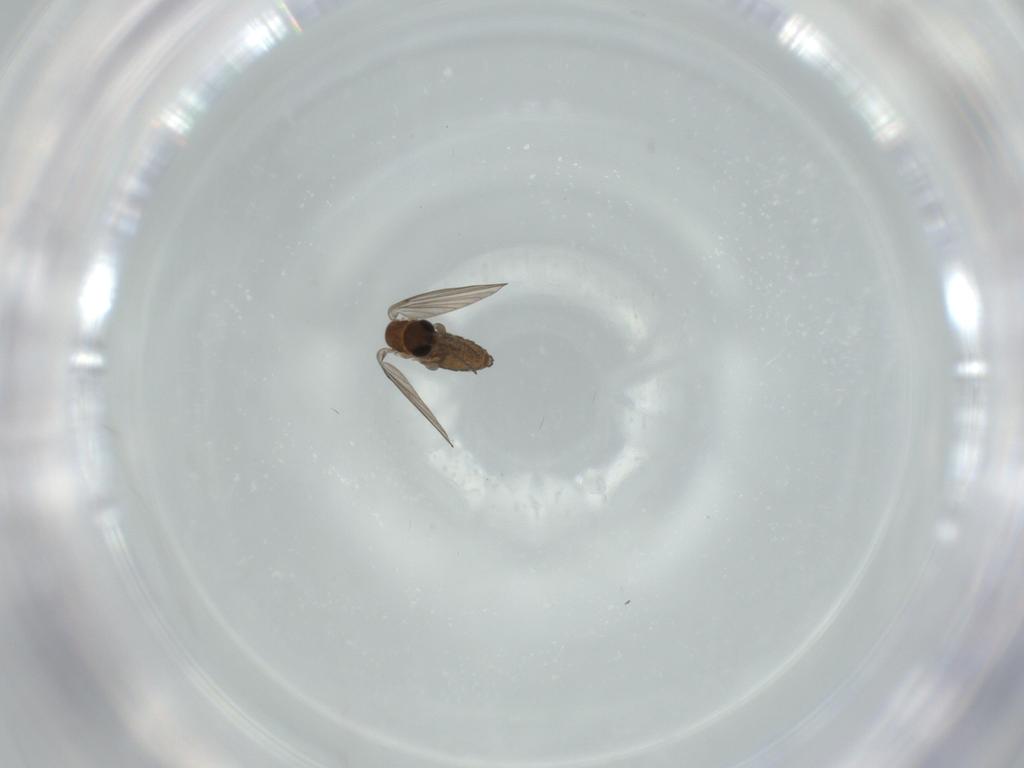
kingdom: Animalia
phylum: Arthropoda
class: Insecta
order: Diptera
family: Psychodidae
